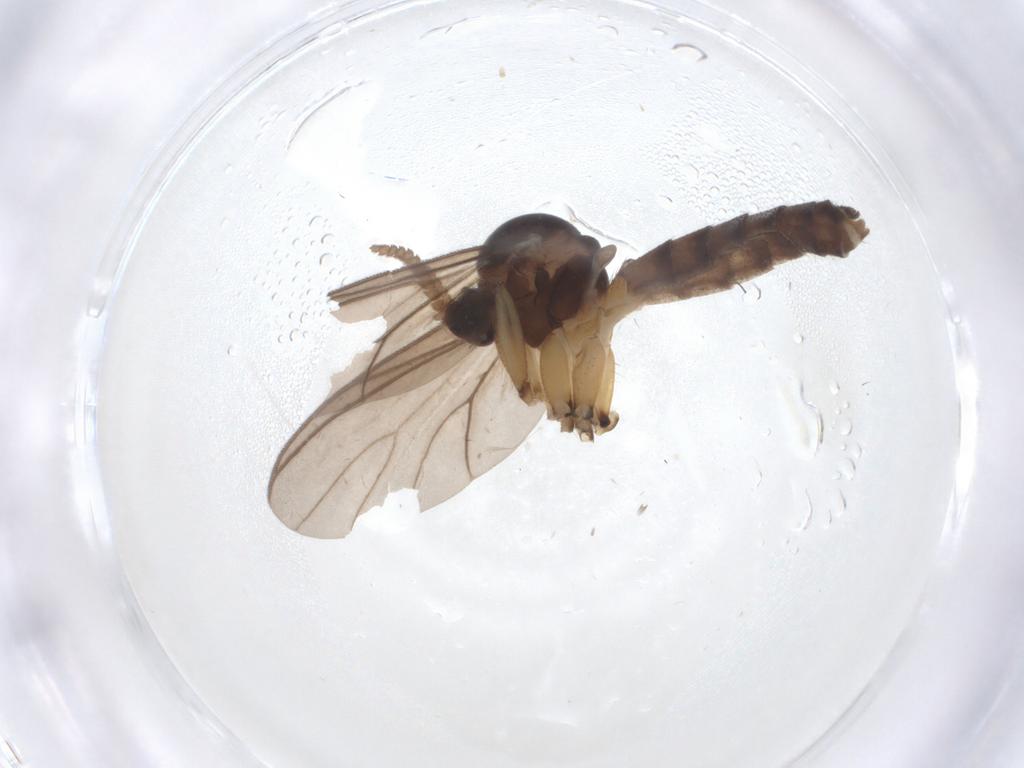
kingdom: Animalia
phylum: Arthropoda
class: Insecta
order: Diptera
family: Mycetophilidae
